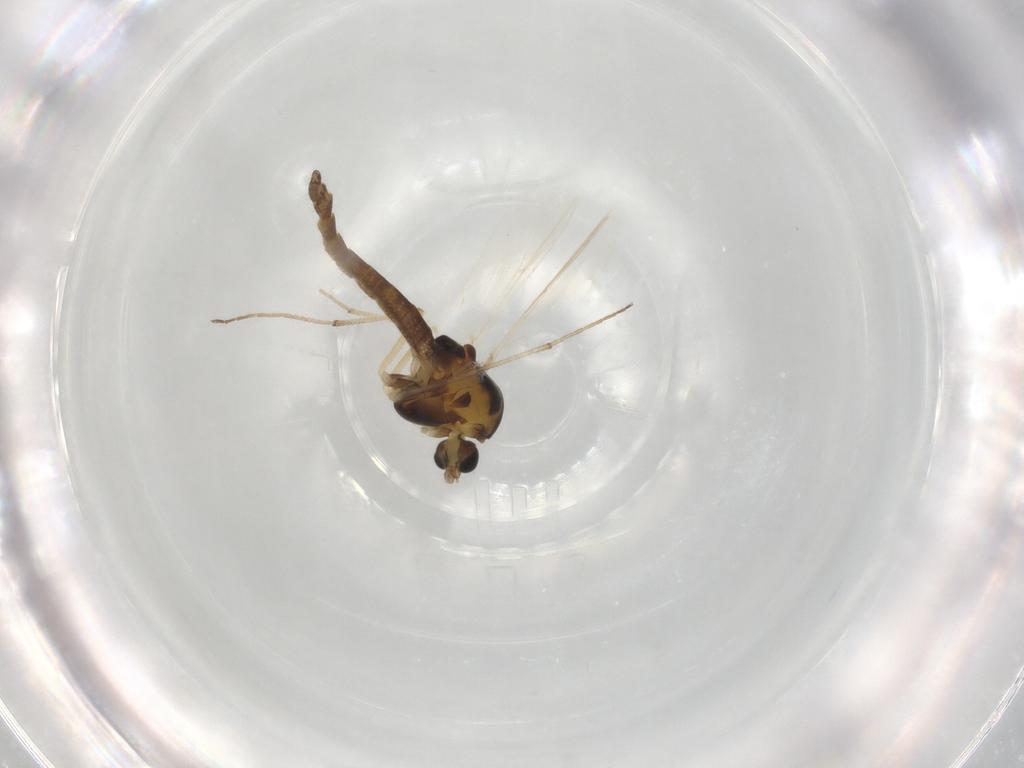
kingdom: Animalia
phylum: Arthropoda
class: Insecta
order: Diptera
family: Chironomidae
